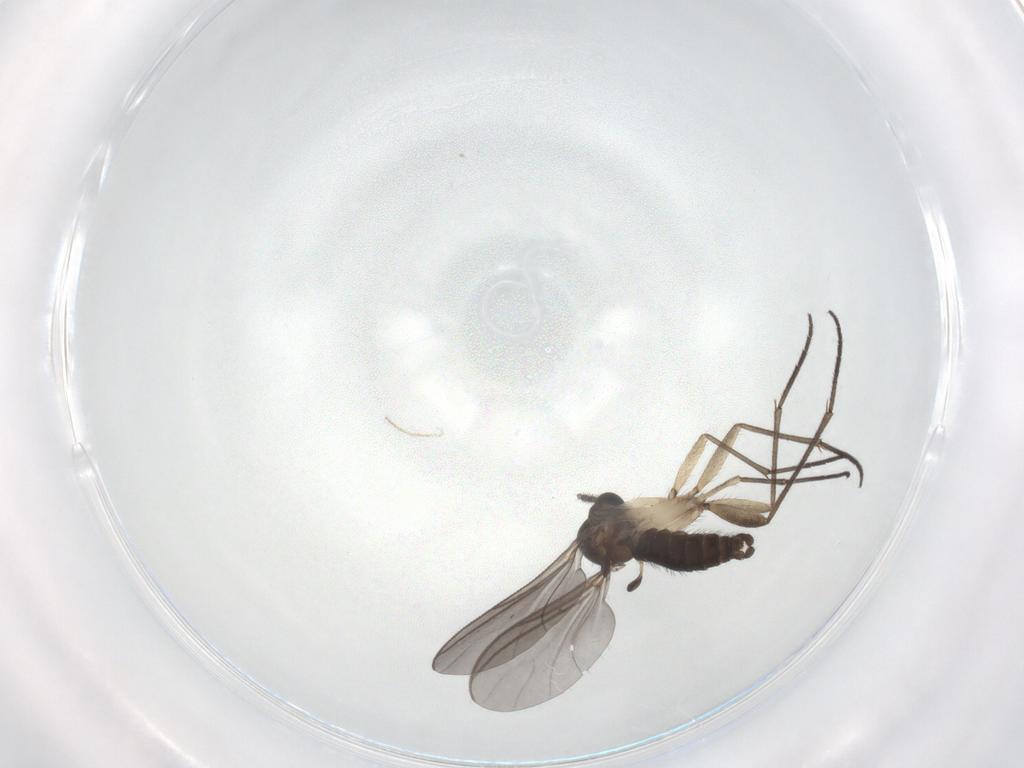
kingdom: Animalia
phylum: Arthropoda
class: Insecta
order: Diptera
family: Sciaridae
